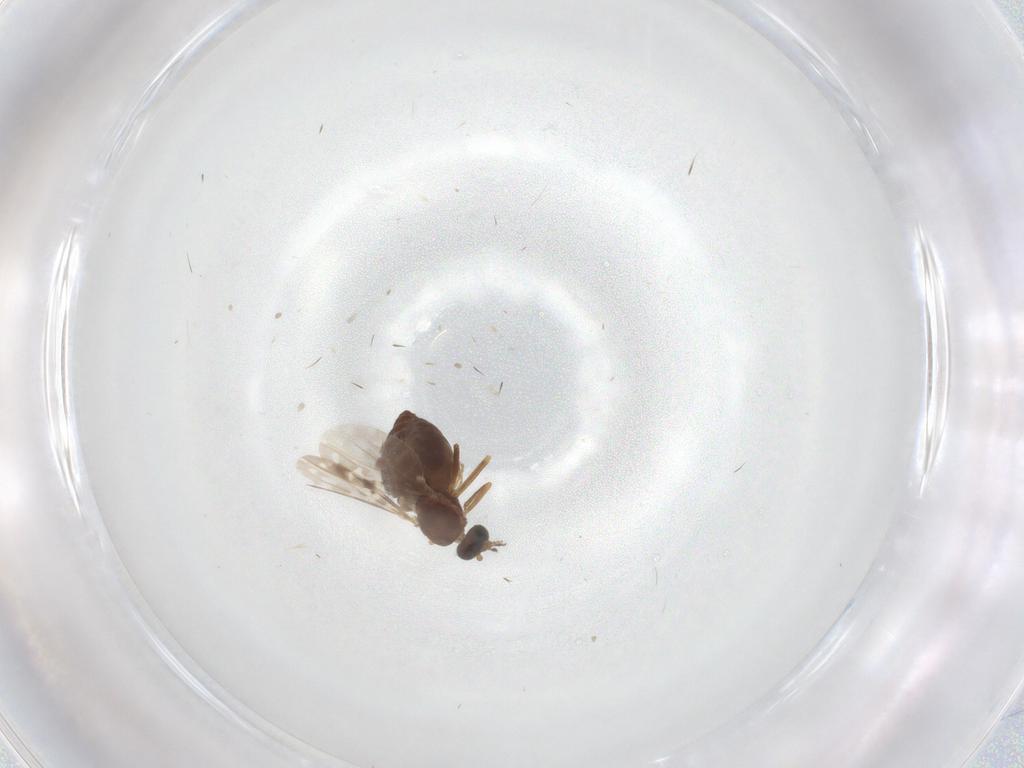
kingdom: Animalia
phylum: Arthropoda
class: Insecta
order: Diptera
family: Ceratopogonidae
